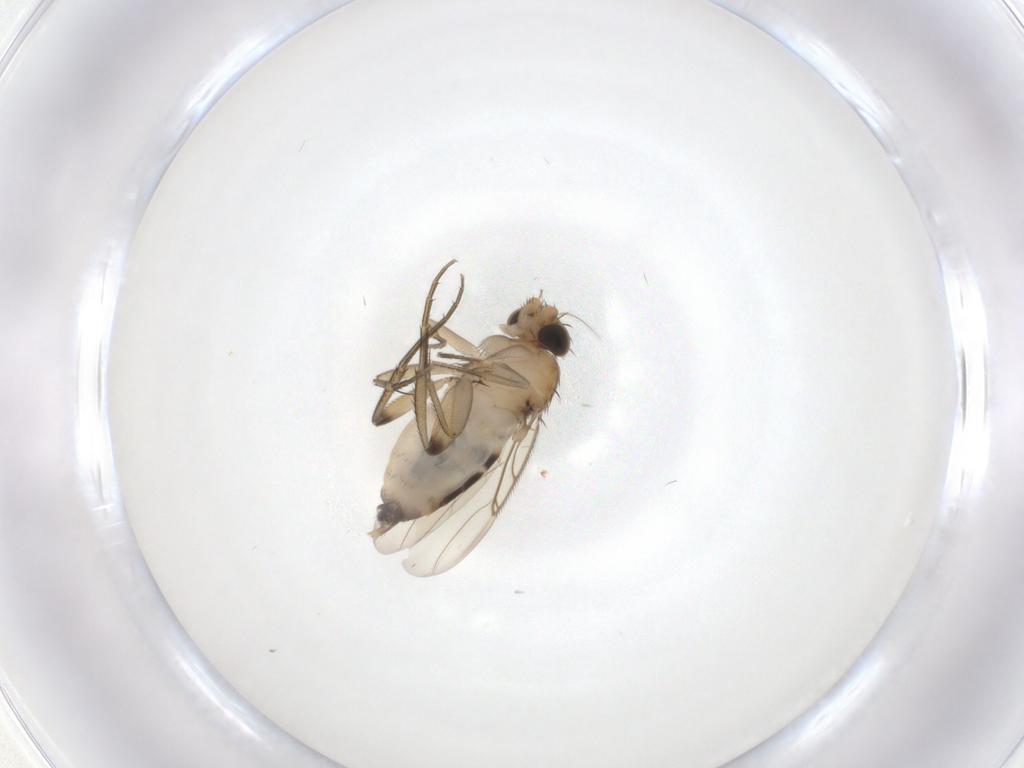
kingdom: Animalia
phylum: Arthropoda
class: Insecta
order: Diptera
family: Phoridae
